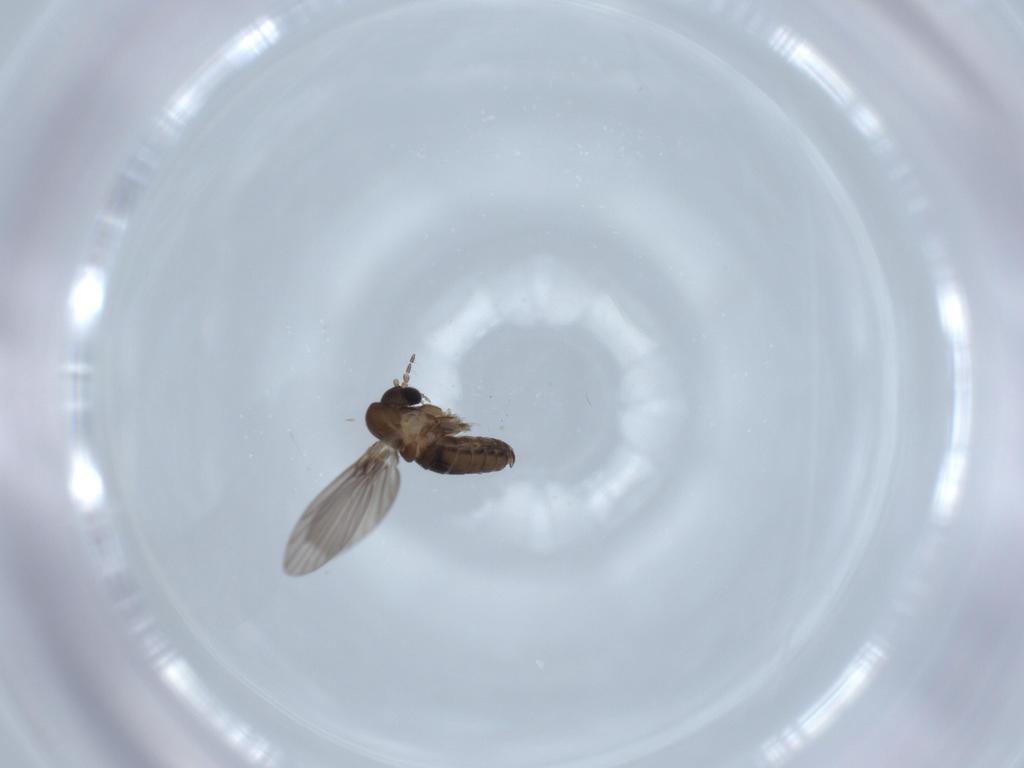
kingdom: Animalia
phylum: Arthropoda
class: Insecta
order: Diptera
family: Psychodidae
